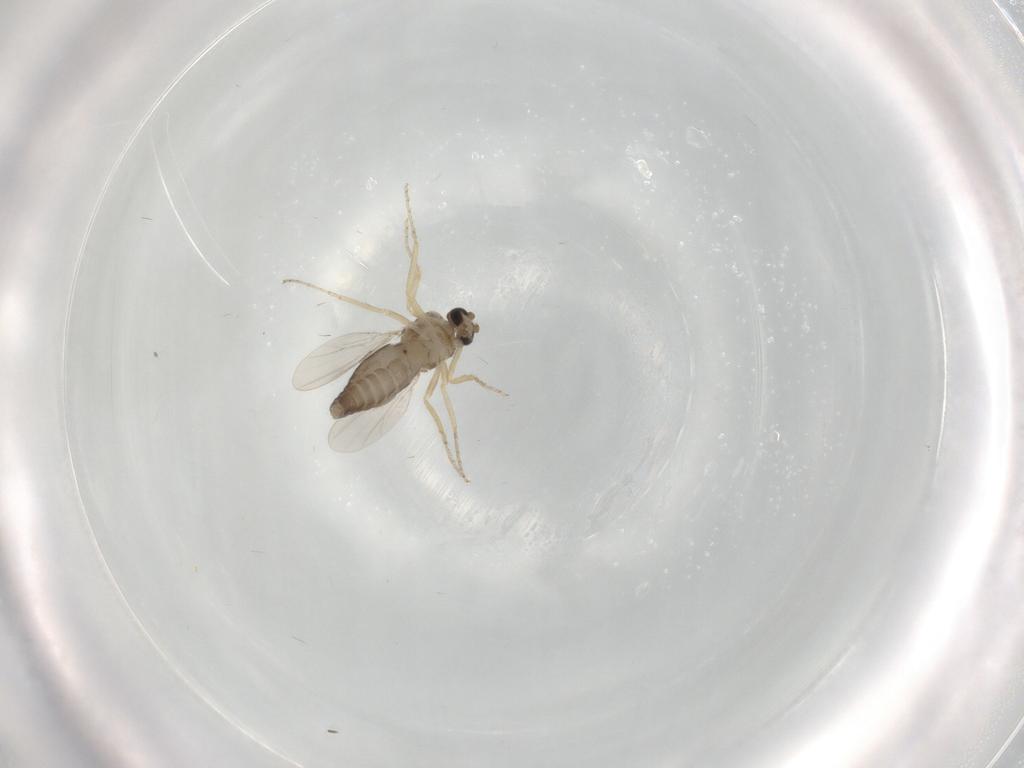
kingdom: Animalia
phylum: Arthropoda
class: Insecta
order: Diptera
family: Ceratopogonidae
